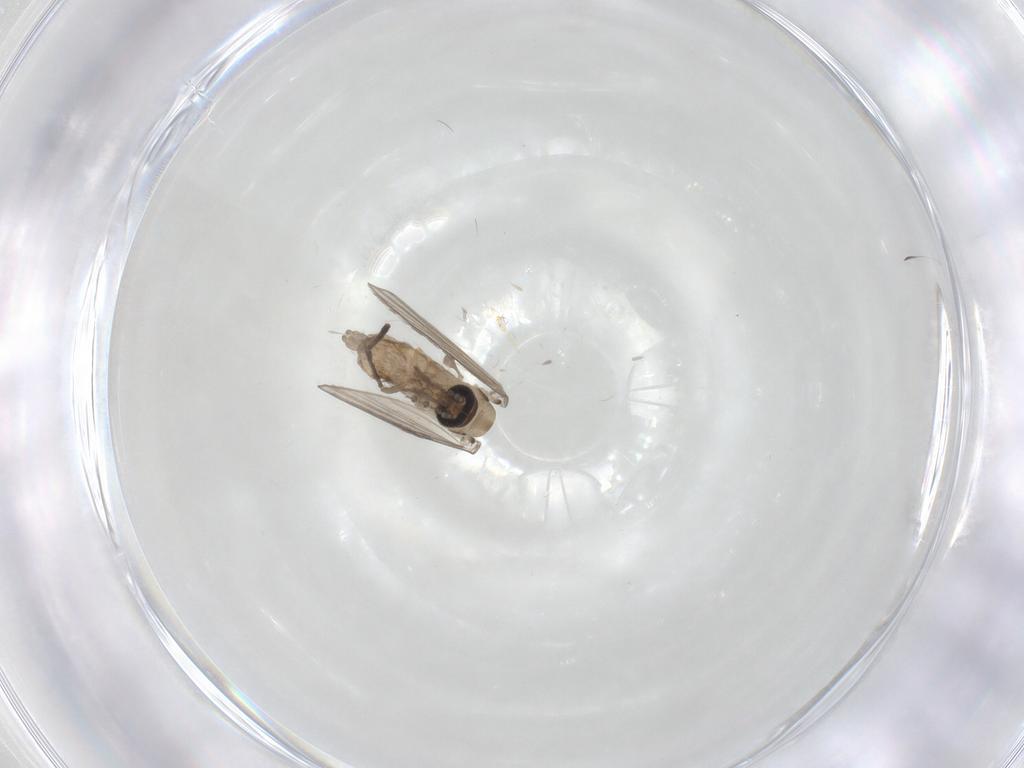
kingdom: Animalia
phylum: Arthropoda
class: Insecta
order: Diptera
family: Psychodidae
